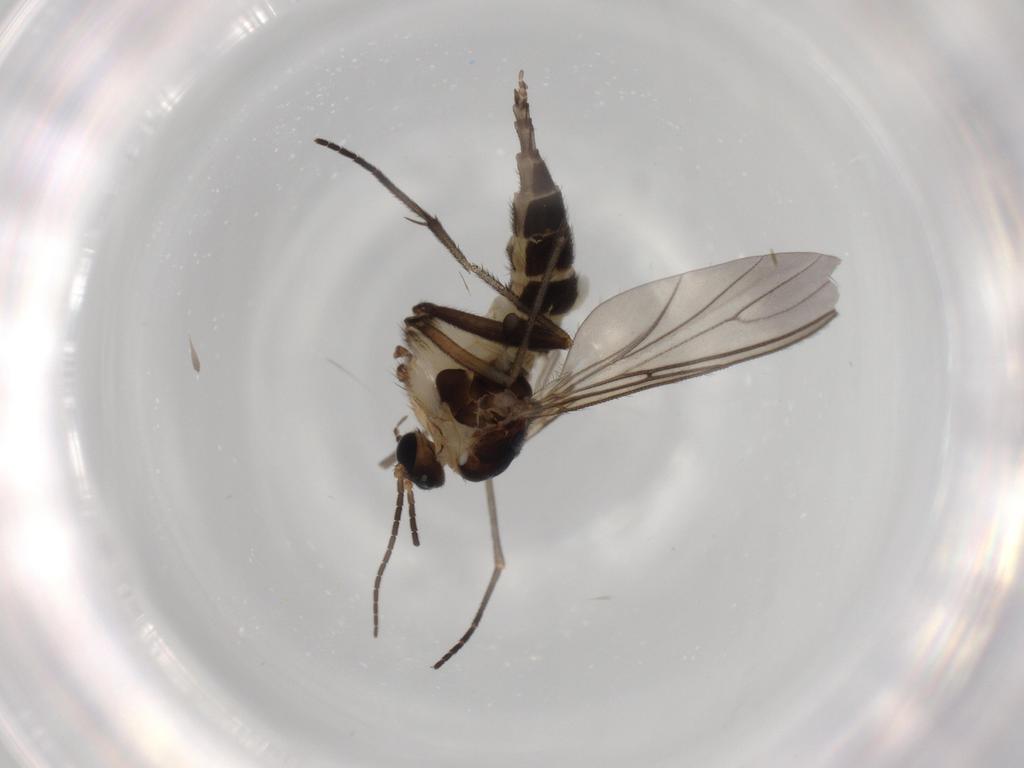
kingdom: Animalia
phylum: Arthropoda
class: Insecta
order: Diptera
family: Sciaridae
